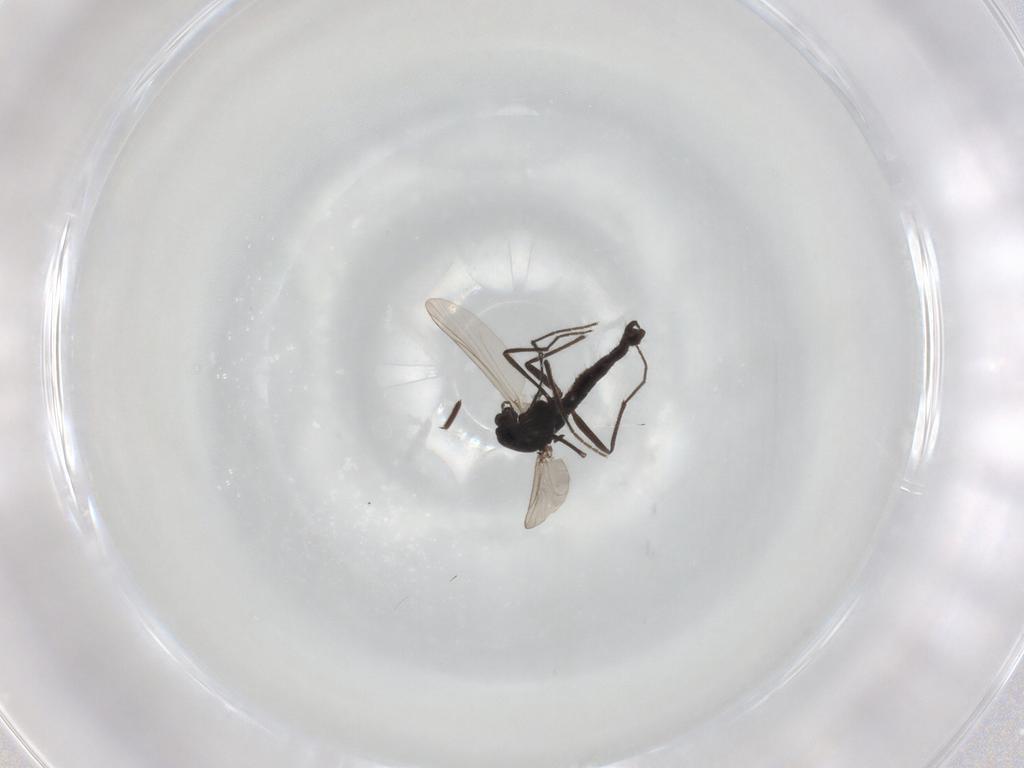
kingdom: Animalia
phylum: Arthropoda
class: Insecta
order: Diptera
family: Chironomidae
